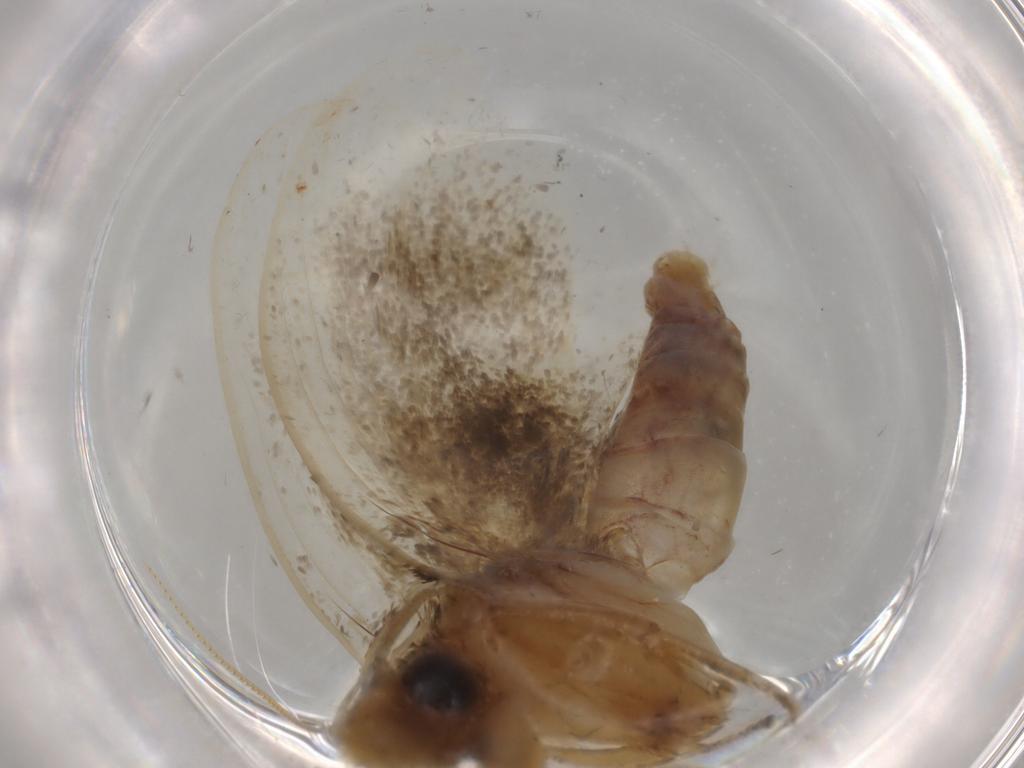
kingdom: Animalia
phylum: Arthropoda
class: Insecta
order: Lepidoptera
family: Tineidae
